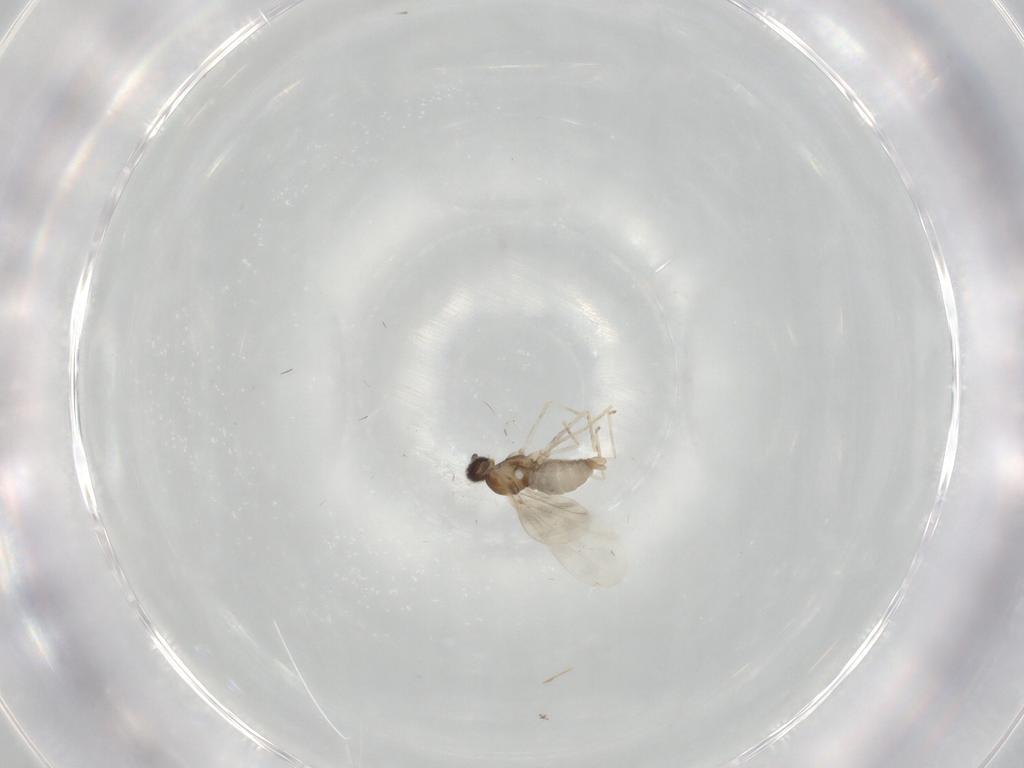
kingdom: Animalia
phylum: Arthropoda
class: Insecta
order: Diptera
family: Cecidomyiidae
